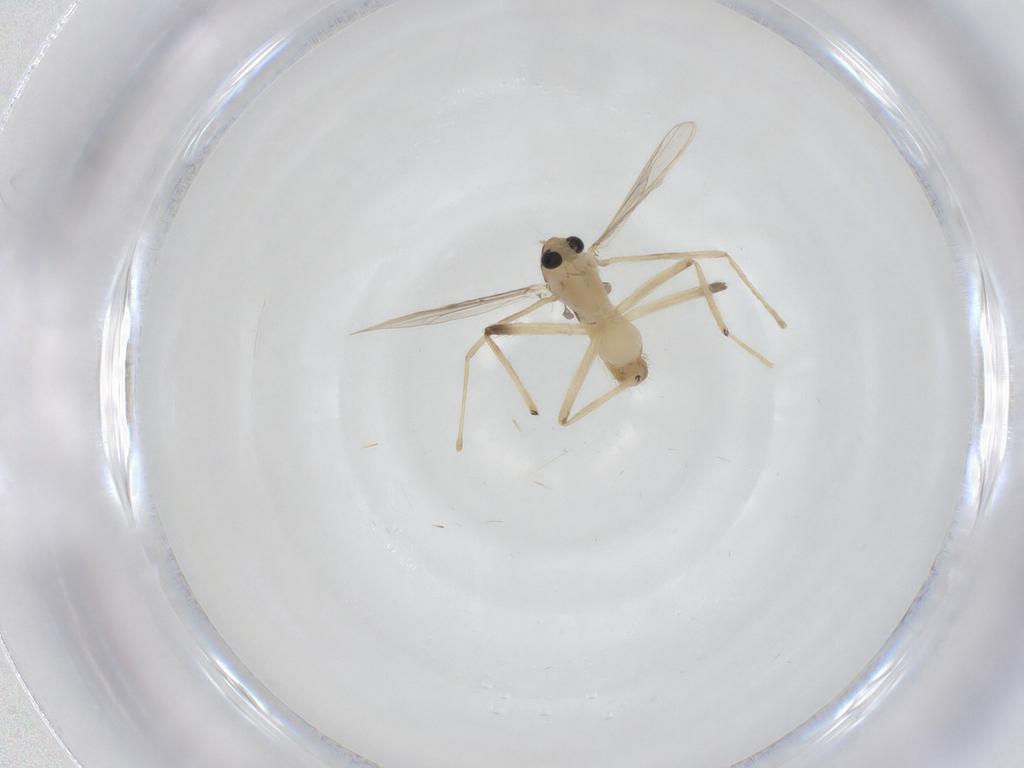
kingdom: Animalia
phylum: Arthropoda
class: Insecta
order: Diptera
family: Chironomidae
